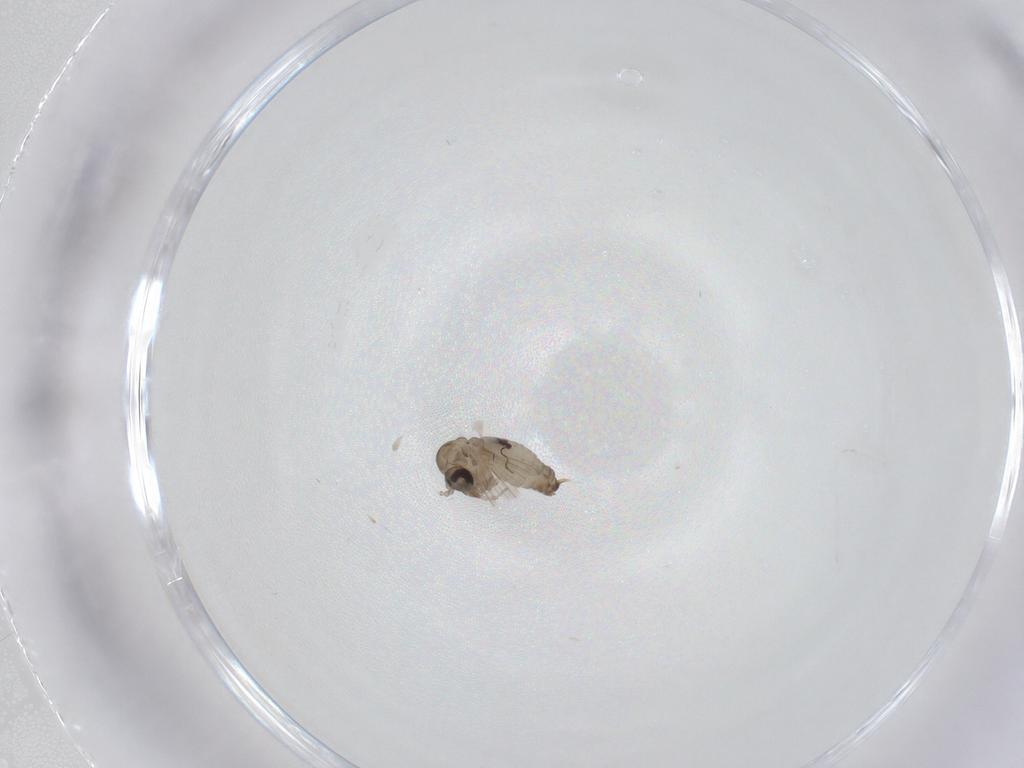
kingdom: Animalia
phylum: Arthropoda
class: Insecta
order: Diptera
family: Psychodidae
